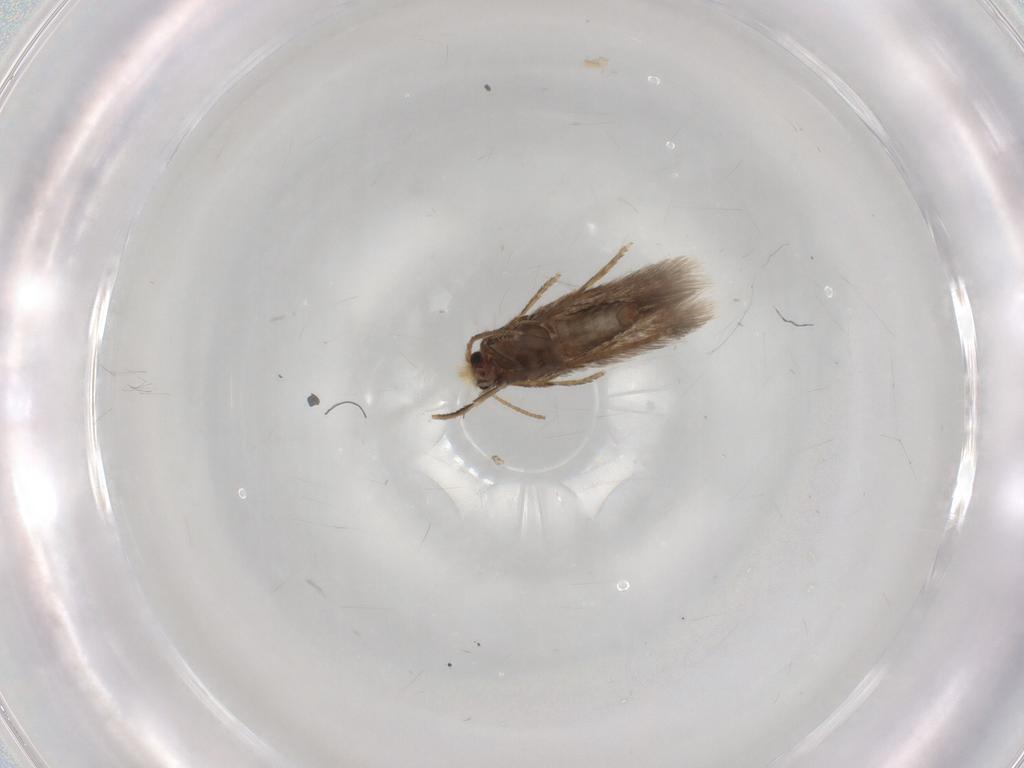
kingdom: Animalia
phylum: Arthropoda
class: Insecta
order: Lepidoptera
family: Nepticulidae
